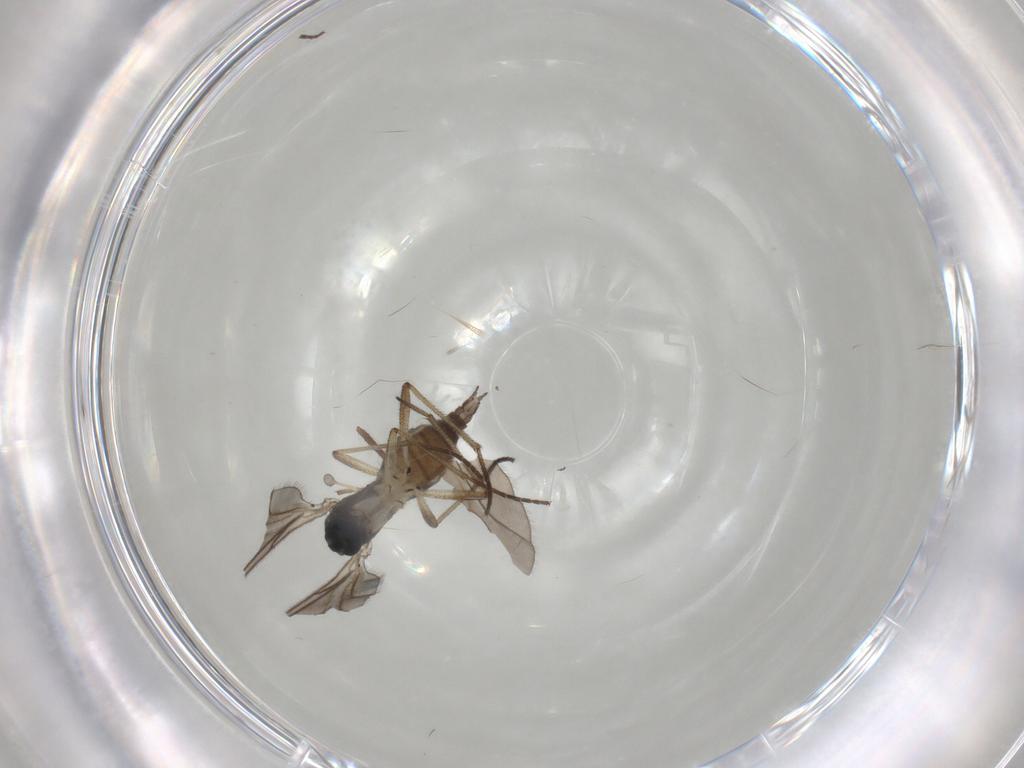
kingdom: Animalia
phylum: Arthropoda
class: Insecta
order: Diptera
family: Sciaridae
